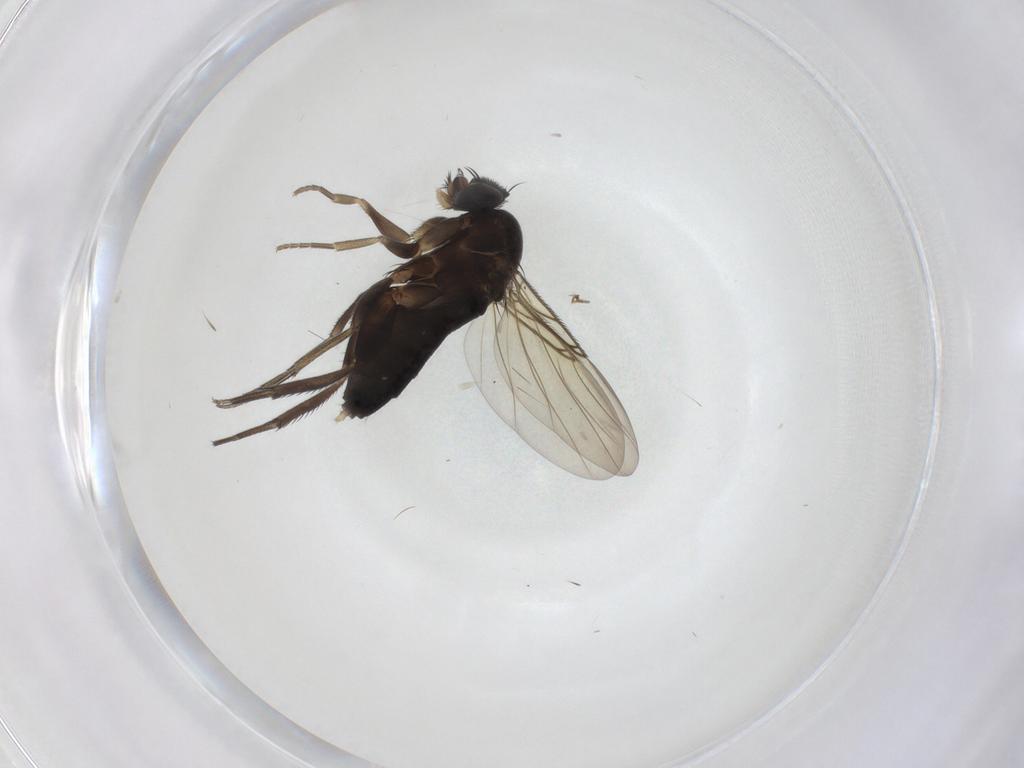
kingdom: Animalia
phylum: Arthropoda
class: Insecta
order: Diptera
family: Phoridae
